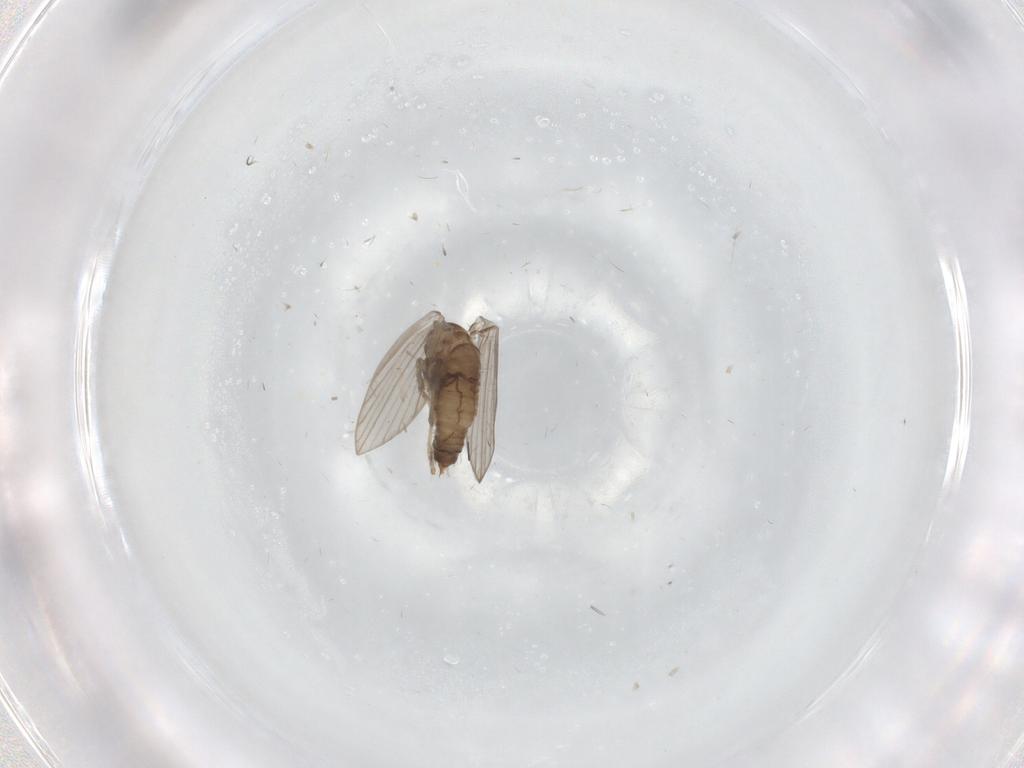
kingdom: Animalia
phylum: Arthropoda
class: Insecta
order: Diptera
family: Psychodidae
